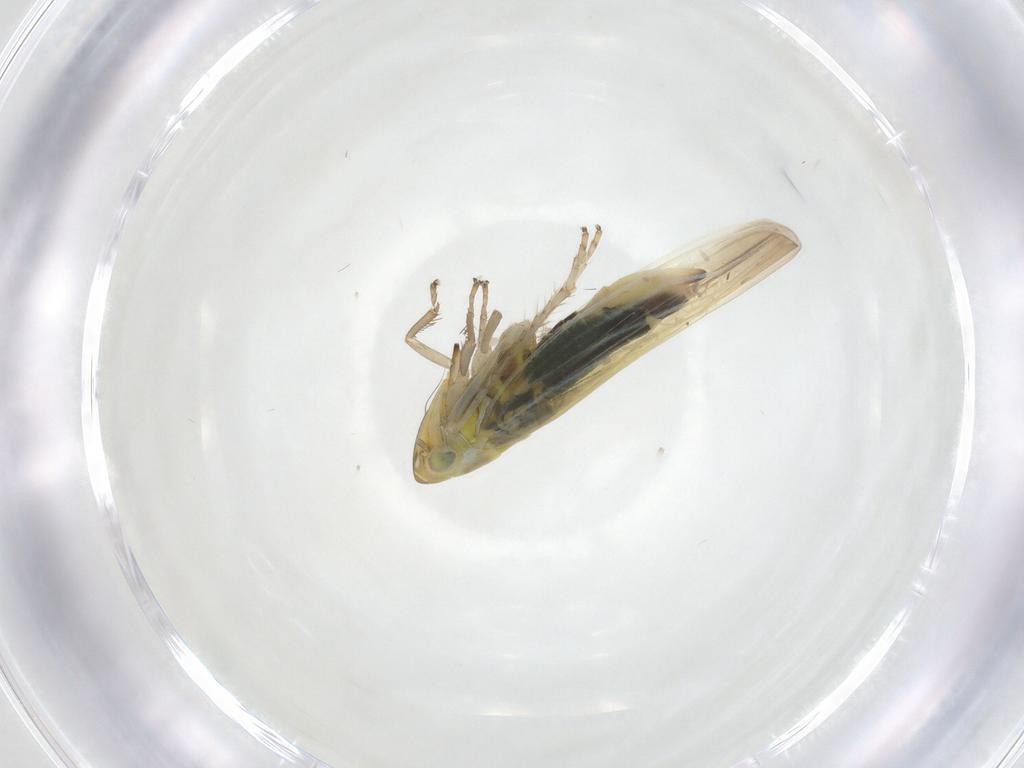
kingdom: Animalia
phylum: Arthropoda
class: Insecta
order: Hemiptera
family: Cicadellidae
